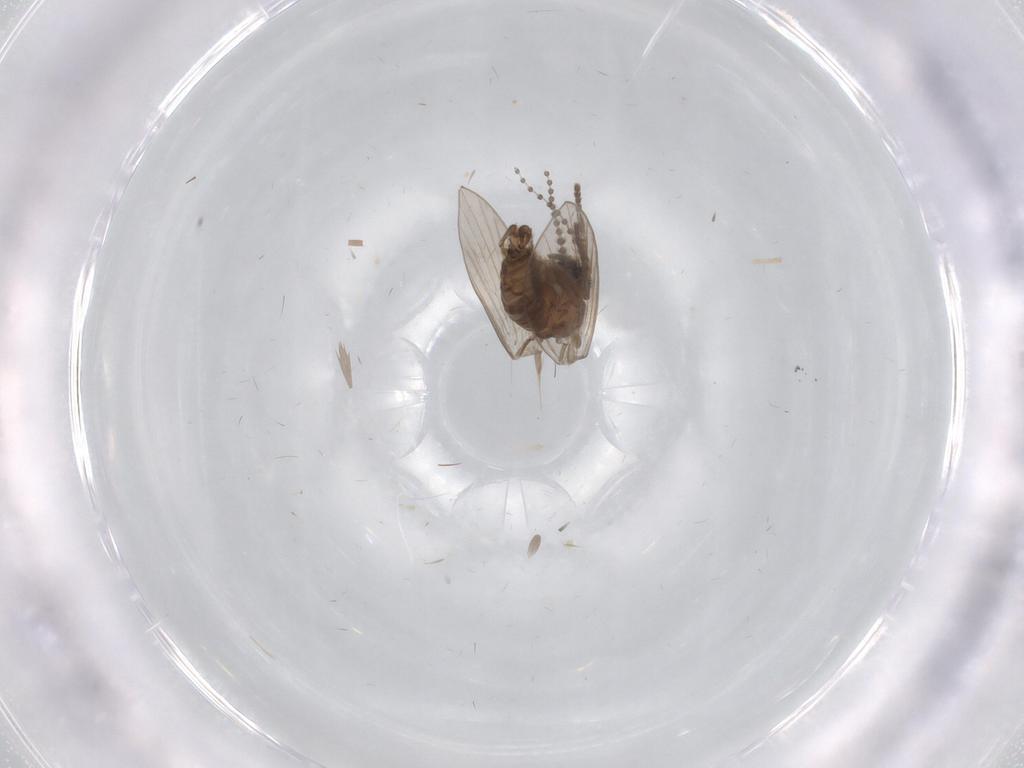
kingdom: Animalia
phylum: Arthropoda
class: Insecta
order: Diptera
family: Psychodidae
